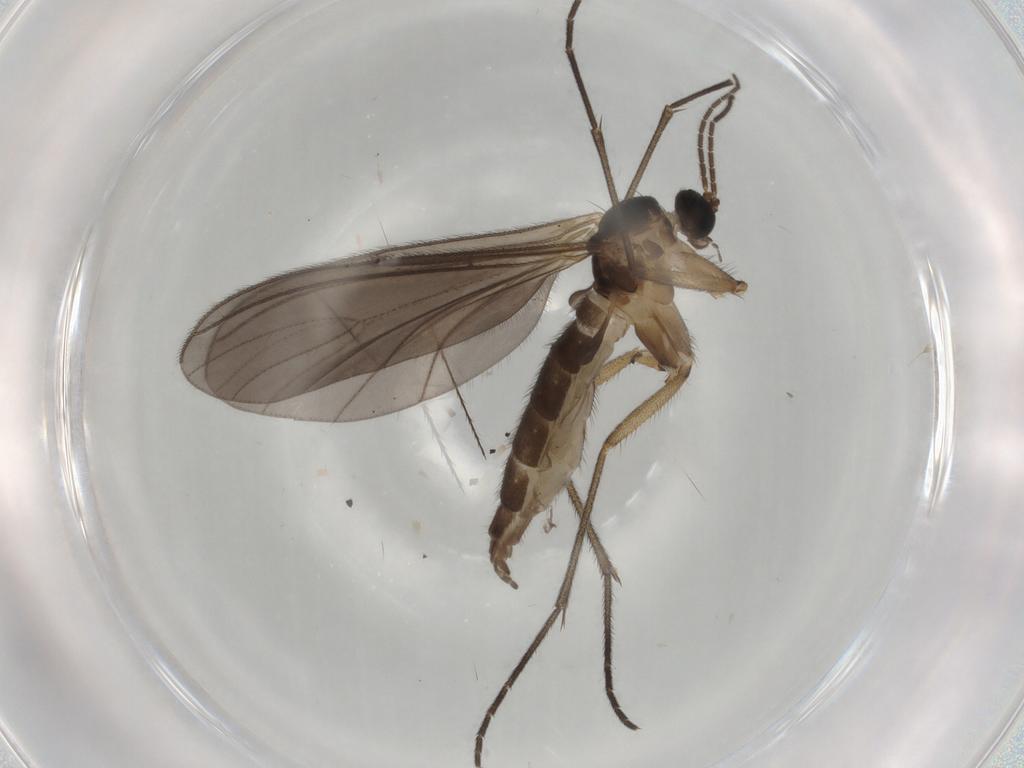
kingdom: Animalia
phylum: Arthropoda
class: Insecta
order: Diptera
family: Sciaridae
